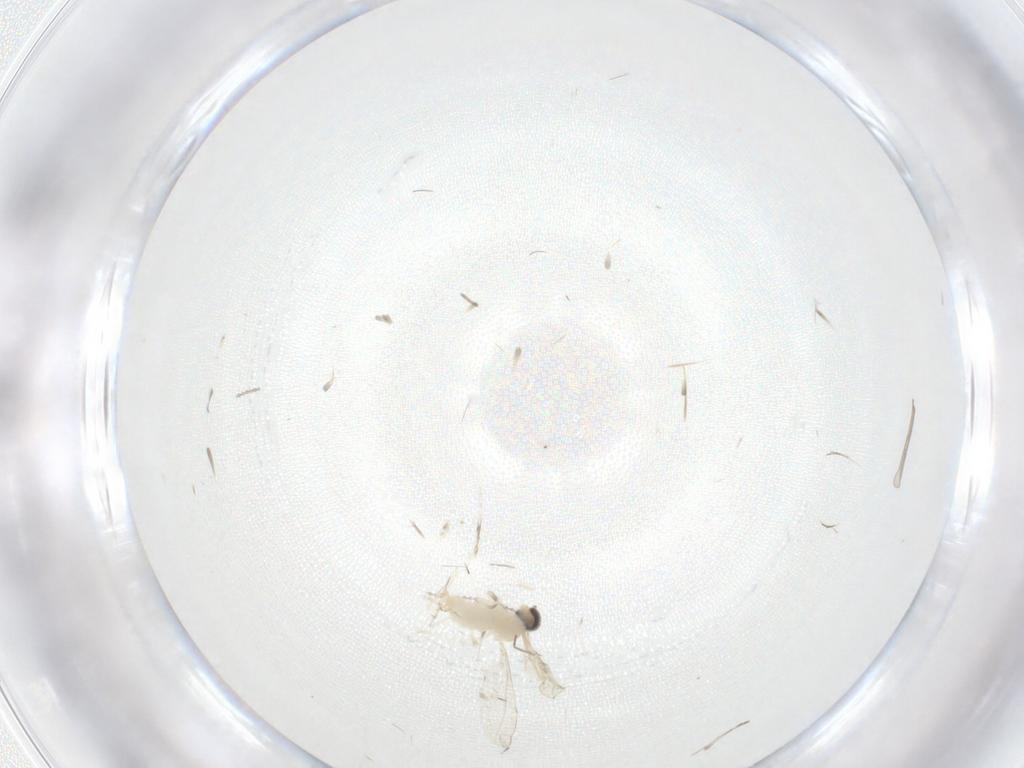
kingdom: Animalia
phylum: Arthropoda
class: Insecta
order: Diptera
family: Cecidomyiidae
